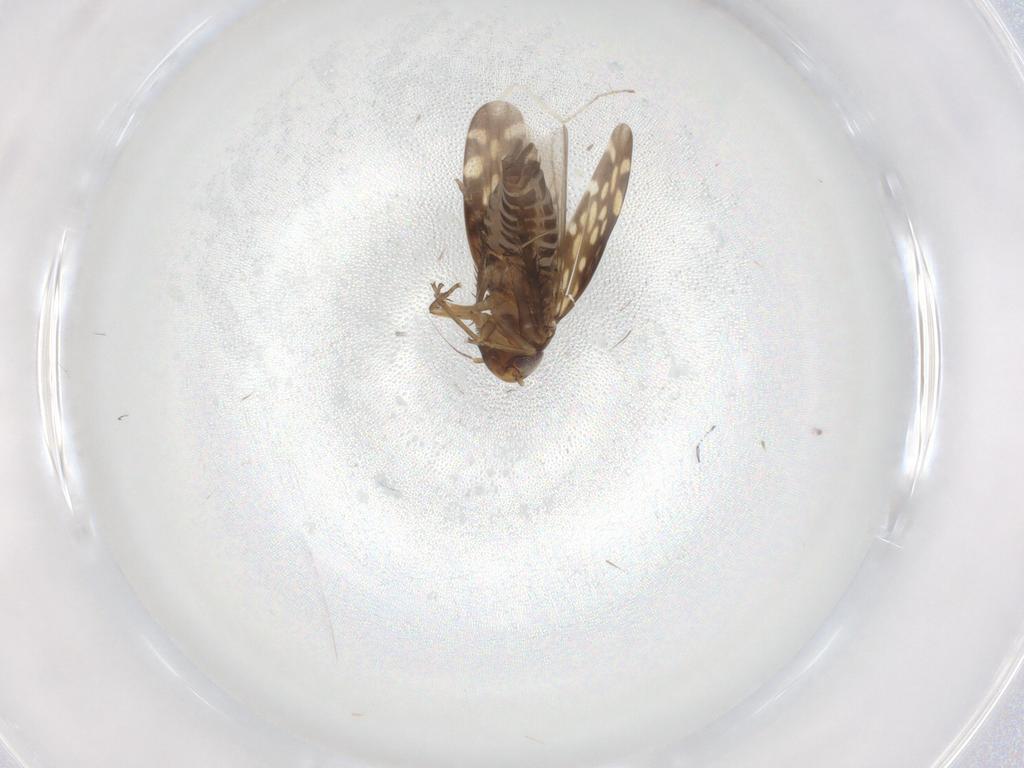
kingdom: Animalia
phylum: Arthropoda
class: Insecta
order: Hemiptera
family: Cicadellidae
